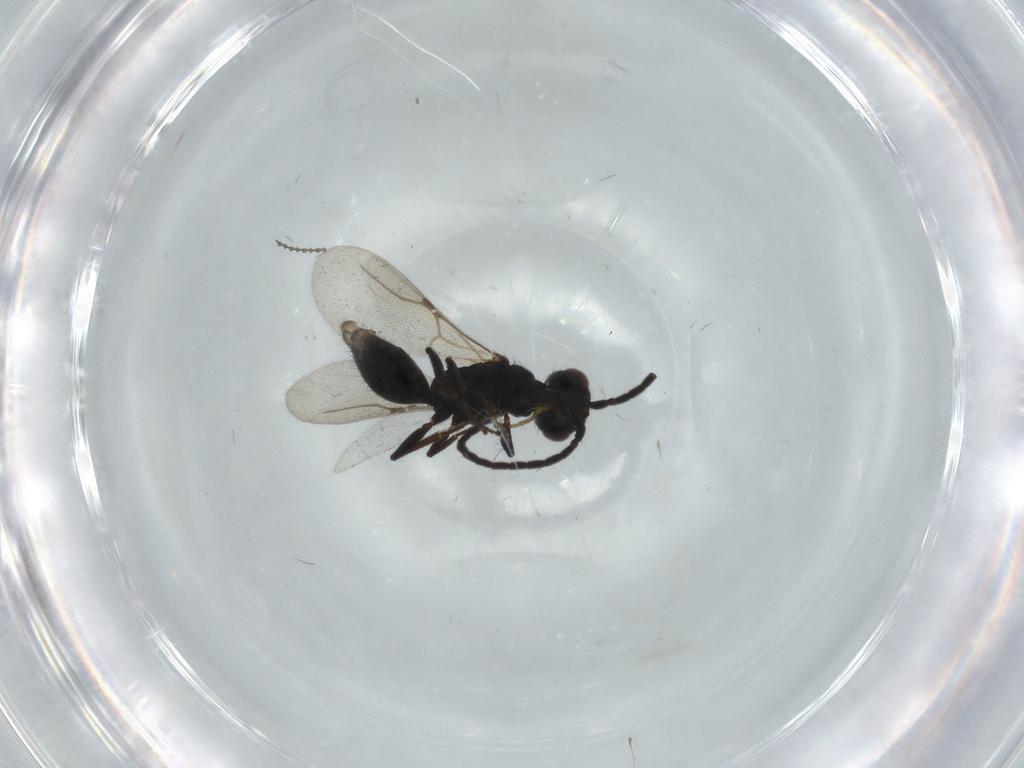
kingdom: Animalia
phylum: Arthropoda
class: Insecta
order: Hymenoptera
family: Bethylidae
